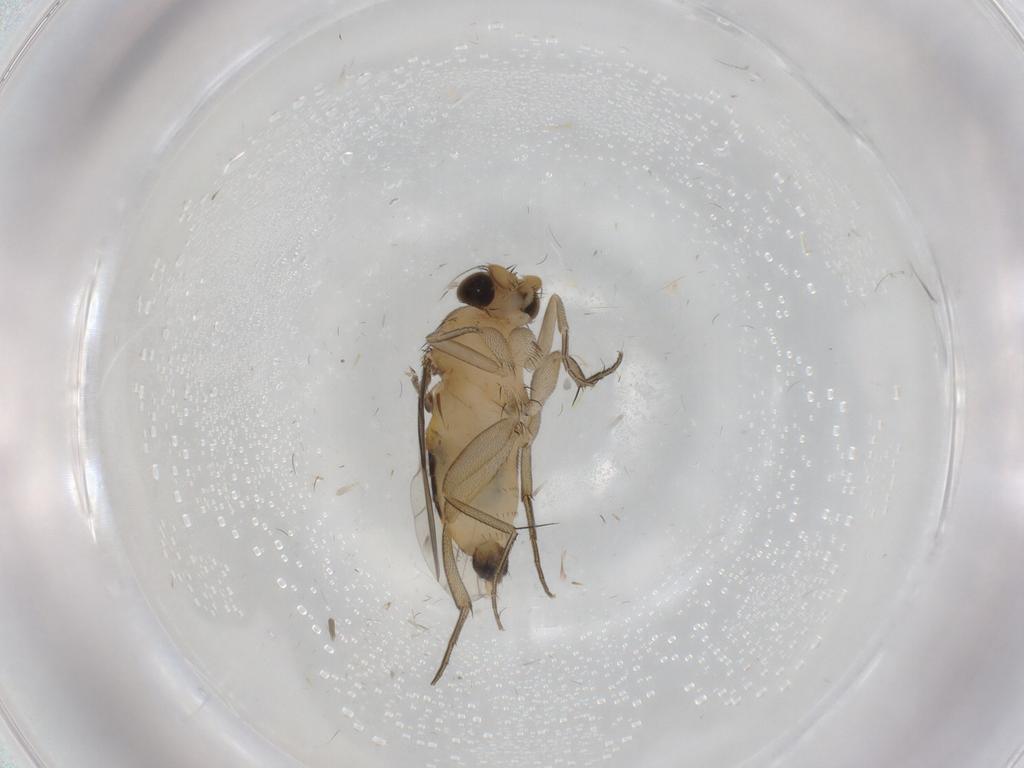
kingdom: Animalia
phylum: Arthropoda
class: Insecta
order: Diptera
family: Phoridae
